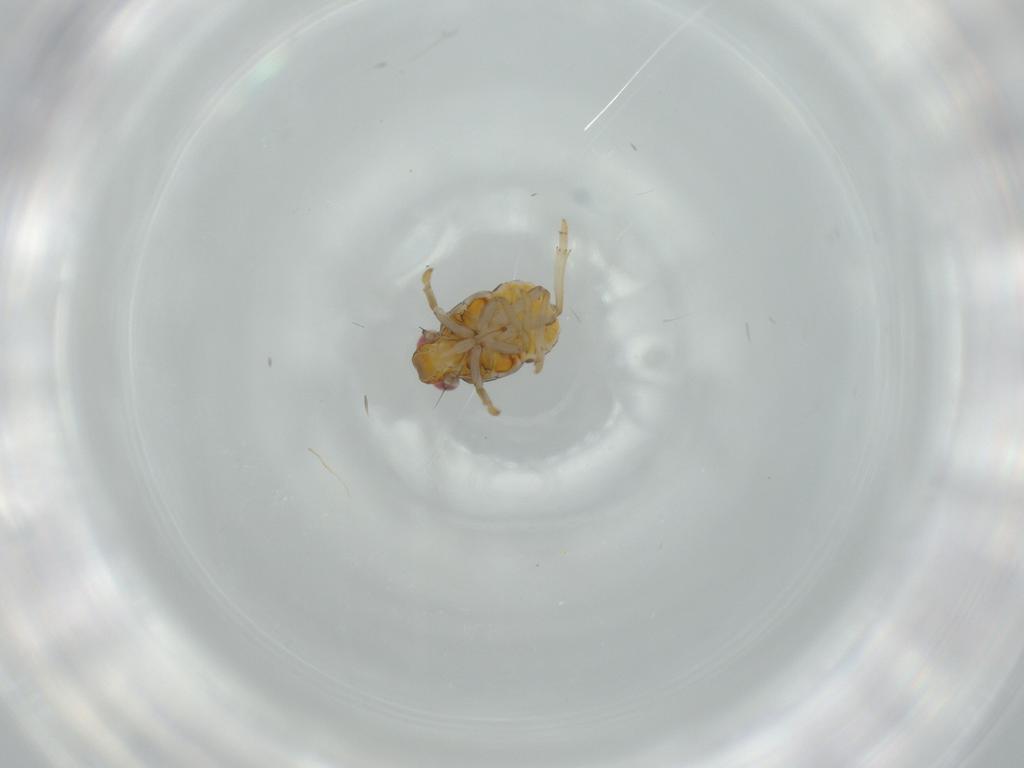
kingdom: Animalia
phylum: Arthropoda
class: Insecta
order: Hemiptera
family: Issidae
